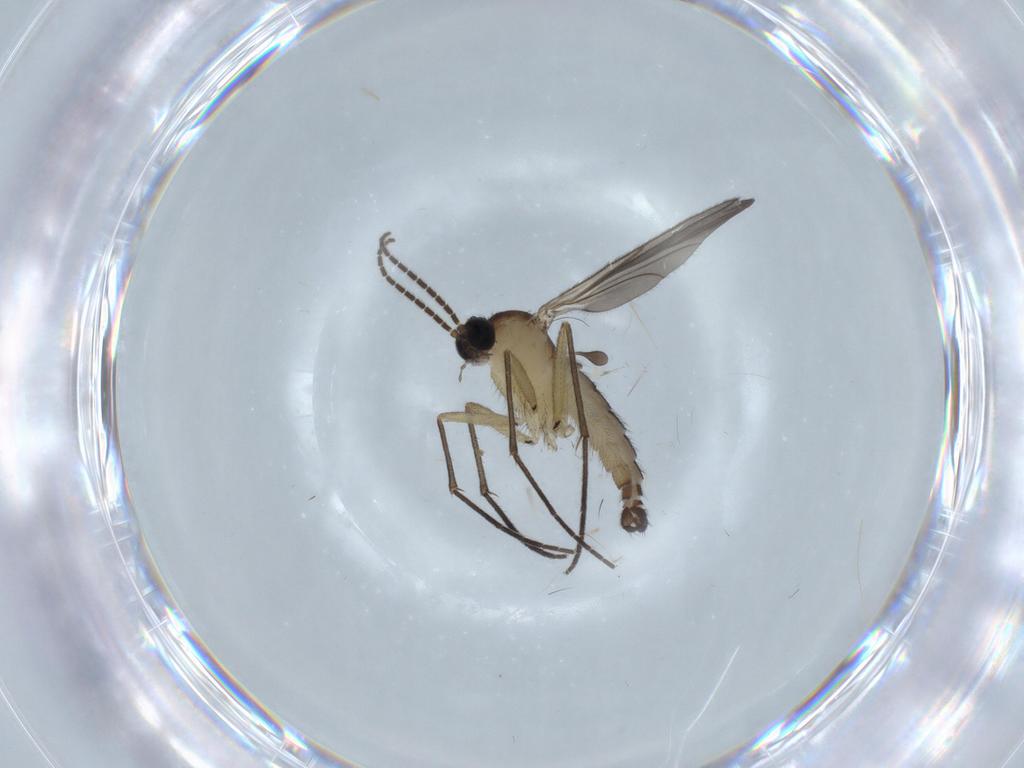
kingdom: Animalia
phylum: Arthropoda
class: Insecta
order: Diptera
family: Sciaridae
